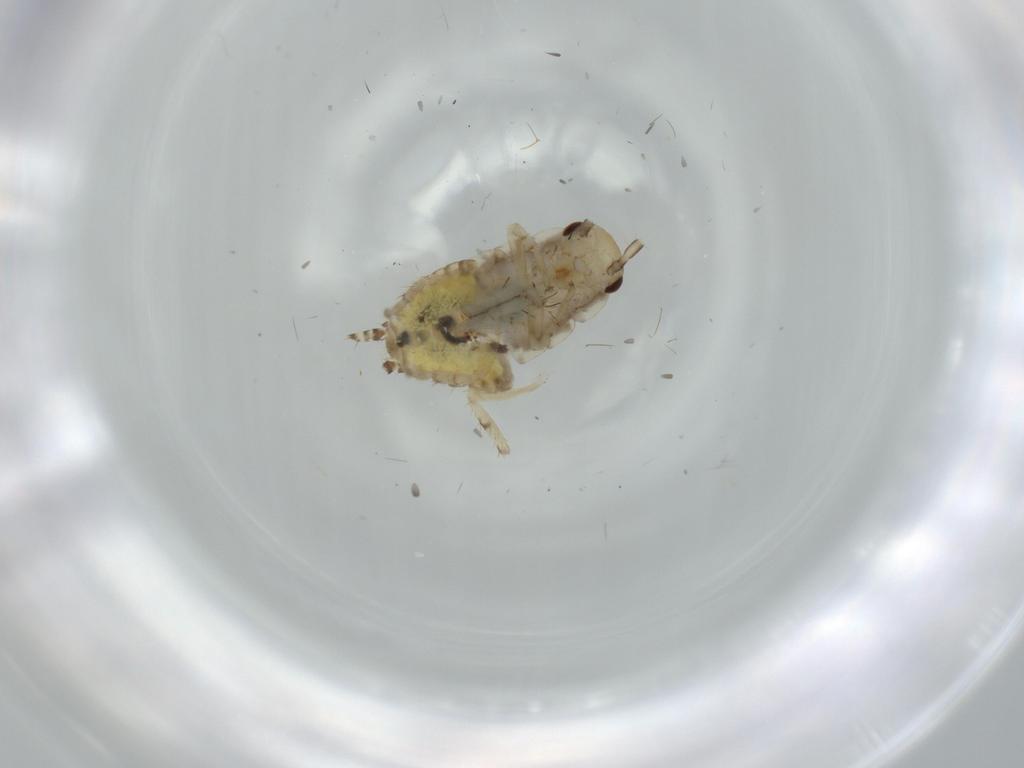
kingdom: Animalia
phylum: Arthropoda
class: Insecta
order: Blattodea
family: Ectobiidae
